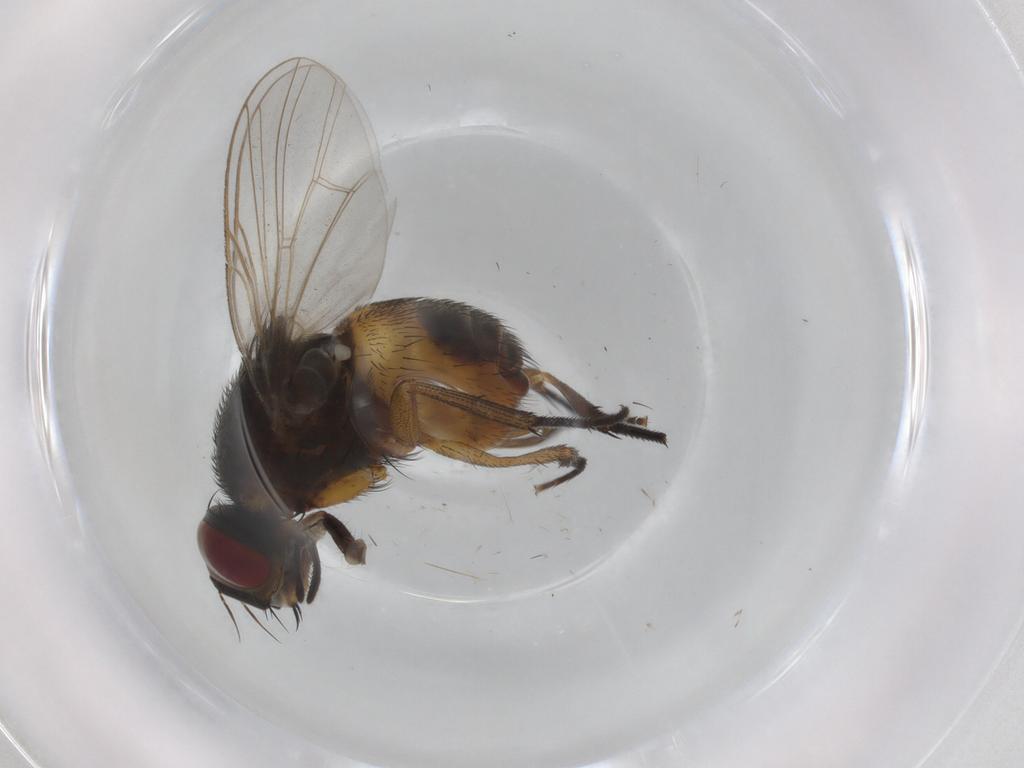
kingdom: Animalia
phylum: Arthropoda
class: Insecta
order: Diptera
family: Muscidae
